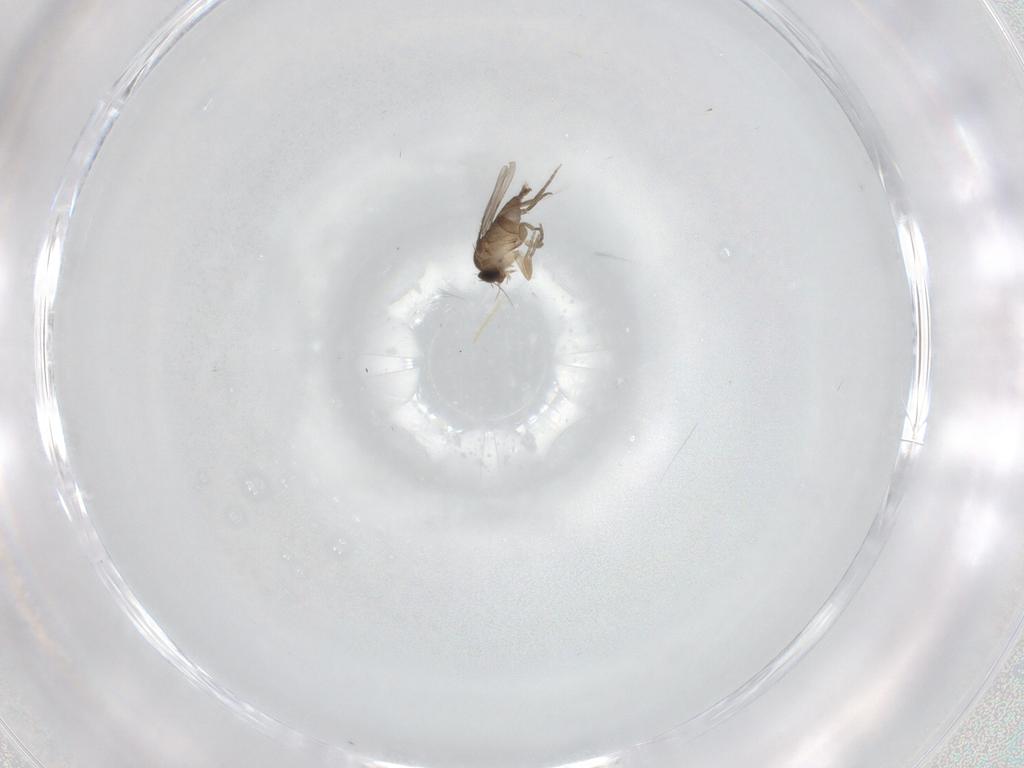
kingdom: Animalia
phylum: Arthropoda
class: Insecta
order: Diptera
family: Phoridae
